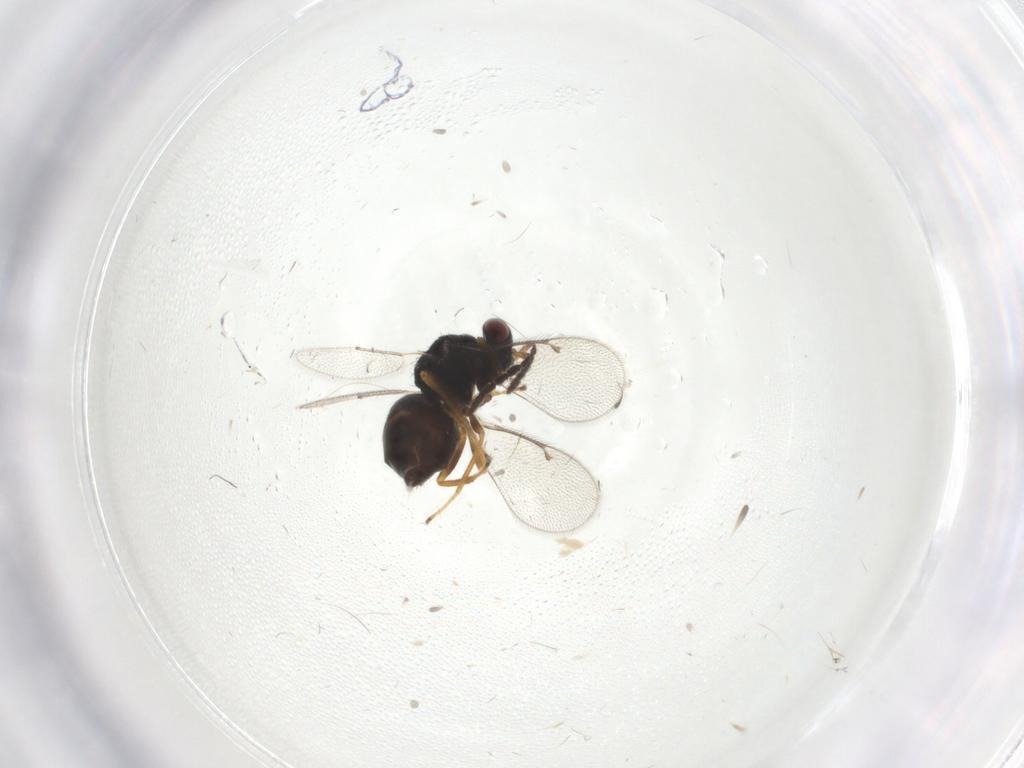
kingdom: Animalia
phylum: Arthropoda
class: Insecta
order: Hymenoptera
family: Eulophidae
